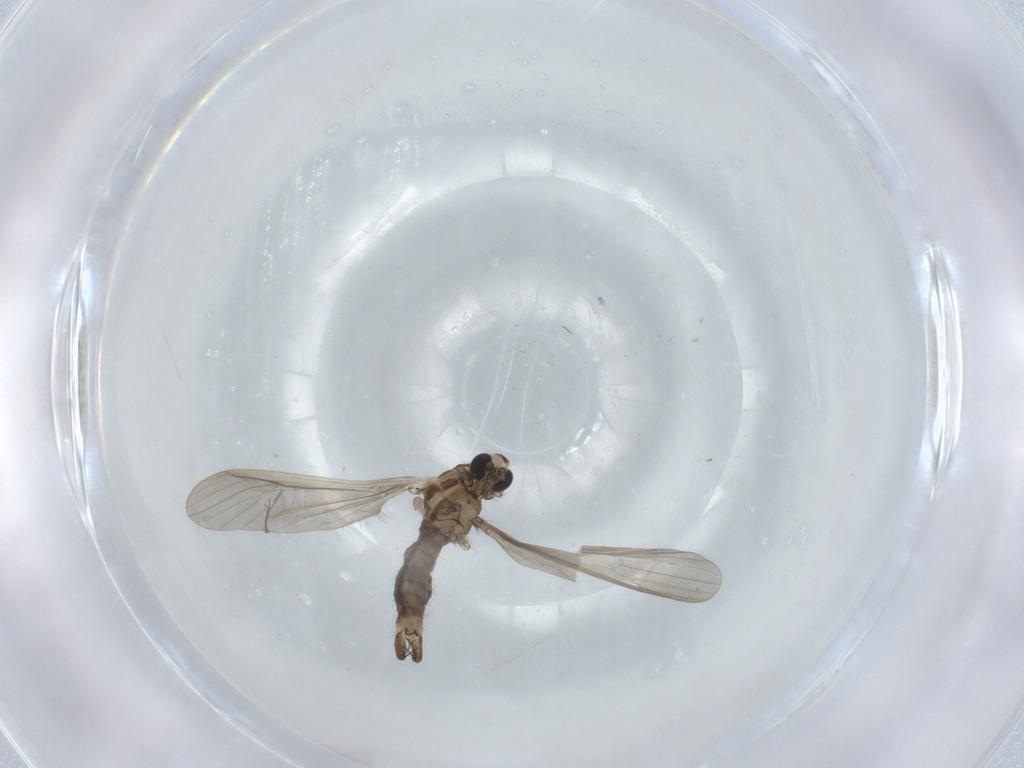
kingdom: Animalia
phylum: Arthropoda
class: Insecta
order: Diptera
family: Limoniidae
